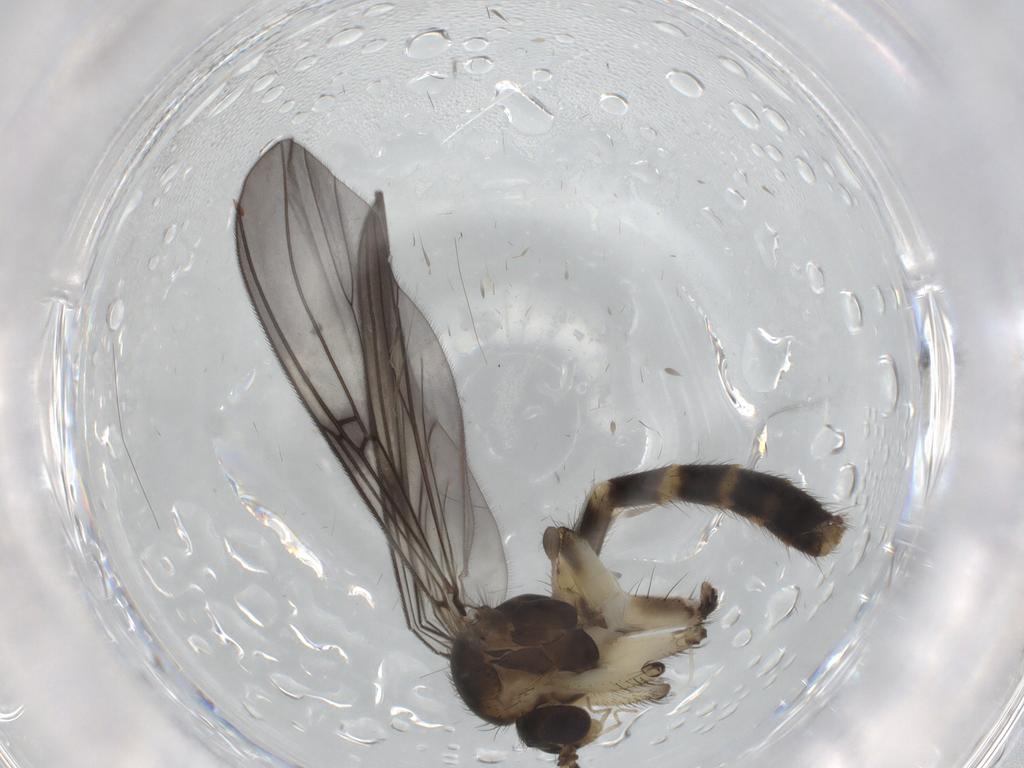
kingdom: Animalia
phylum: Arthropoda
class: Insecta
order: Diptera
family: Mycetophilidae
